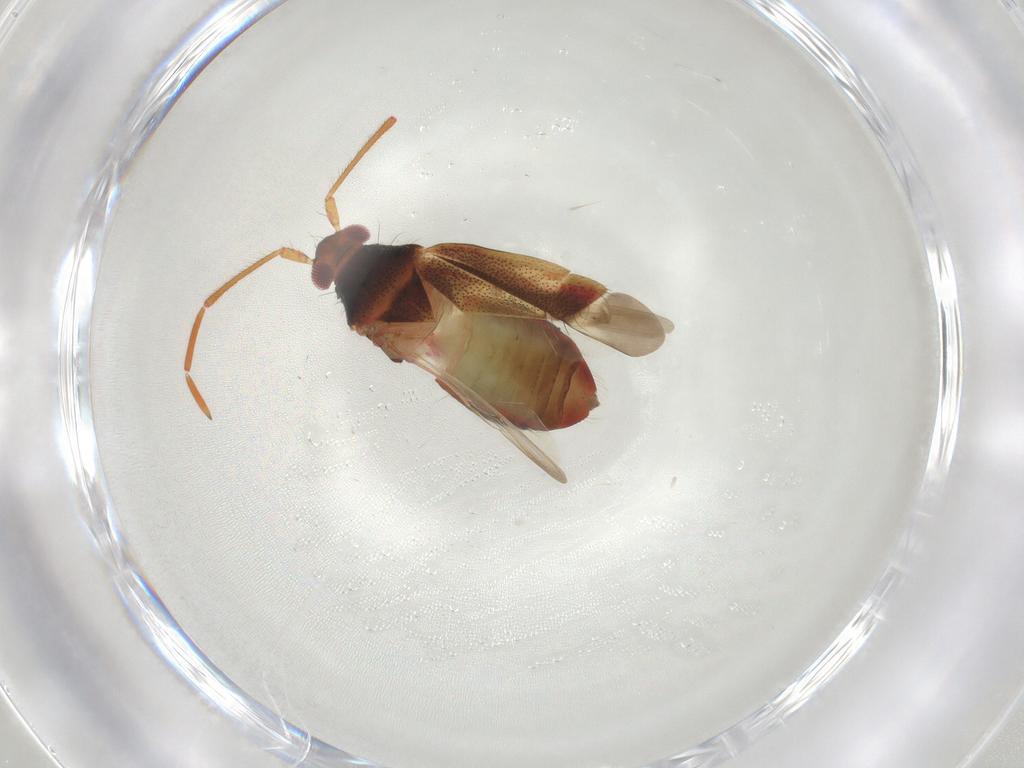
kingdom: Animalia
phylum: Arthropoda
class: Insecta
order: Hemiptera
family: Miridae
